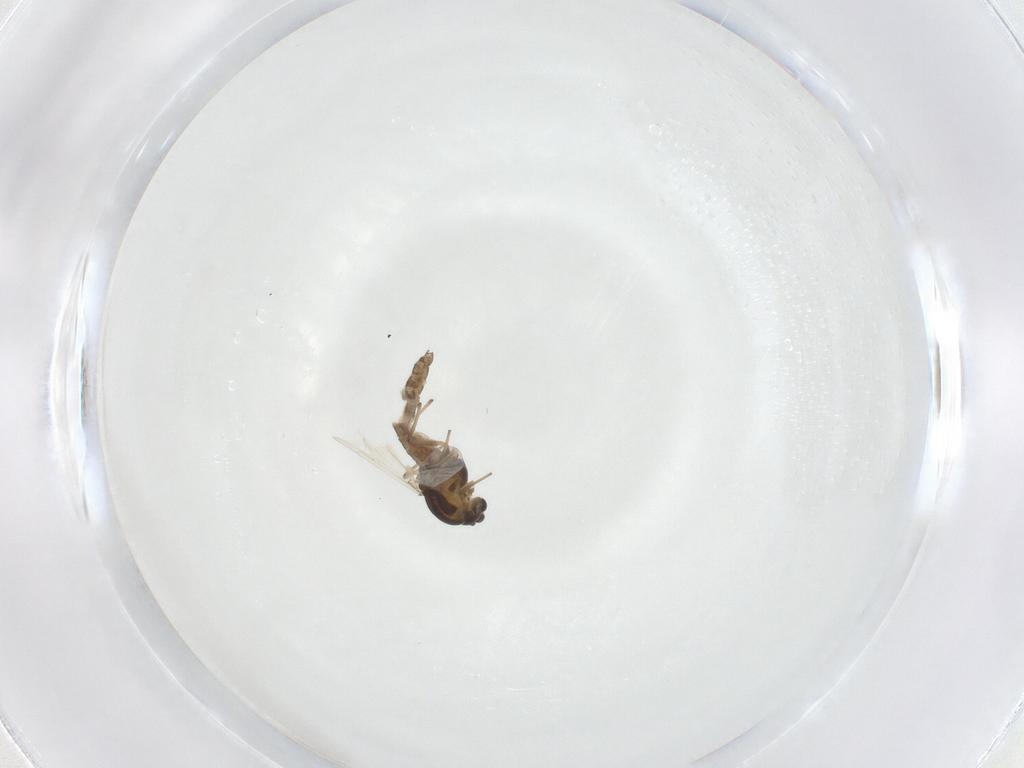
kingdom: Animalia
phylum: Arthropoda
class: Insecta
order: Diptera
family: Chironomidae
